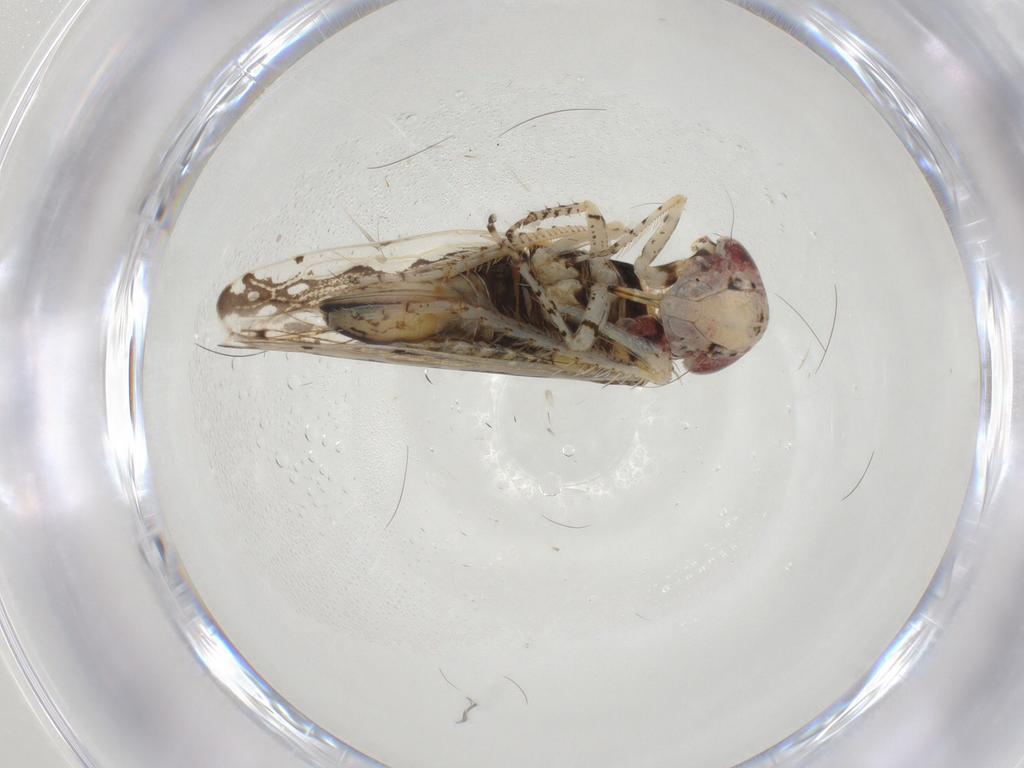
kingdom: Animalia
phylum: Arthropoda
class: Insecta
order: Hemiptera
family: Cicadellidae
